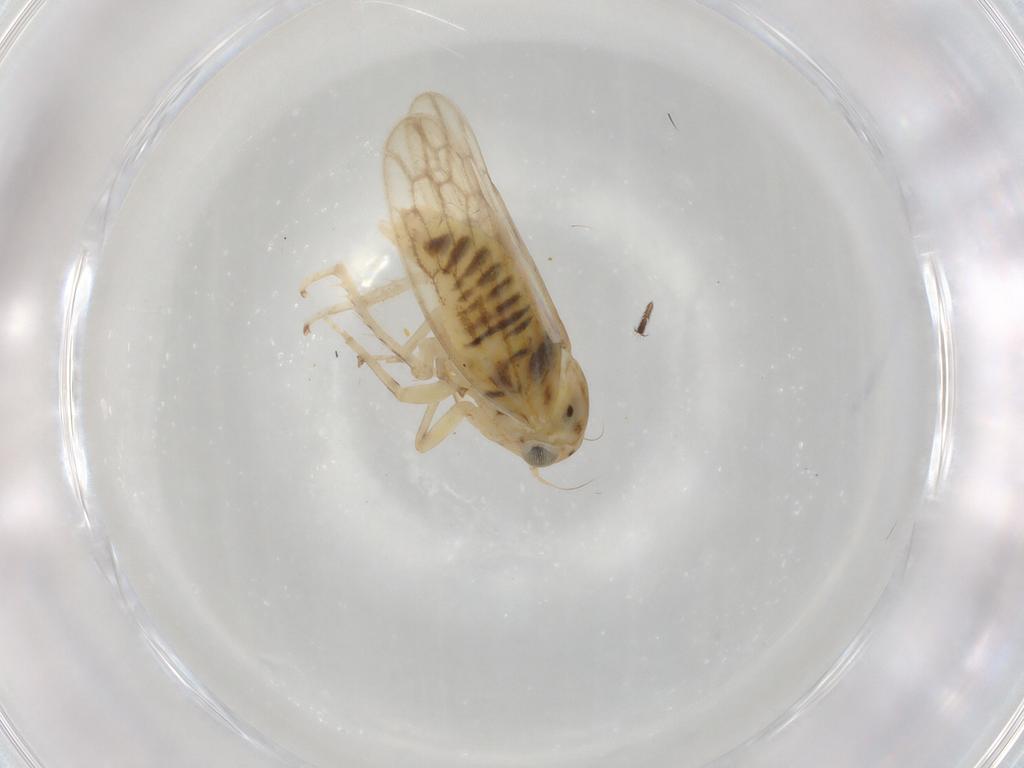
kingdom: Animalia
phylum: Arthropoda
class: Insecta
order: Hemiptera
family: Cicadellidae
